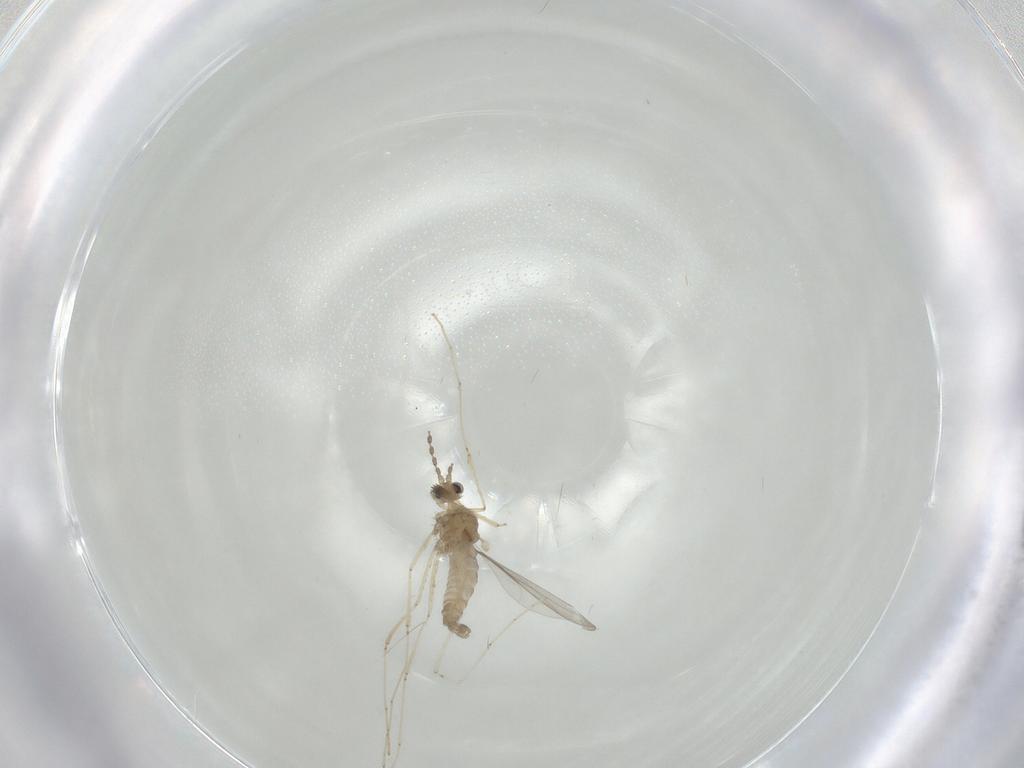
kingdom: Animalia
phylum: Arthropoda
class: Insecta
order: Diptera
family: Cecidomyiidae
